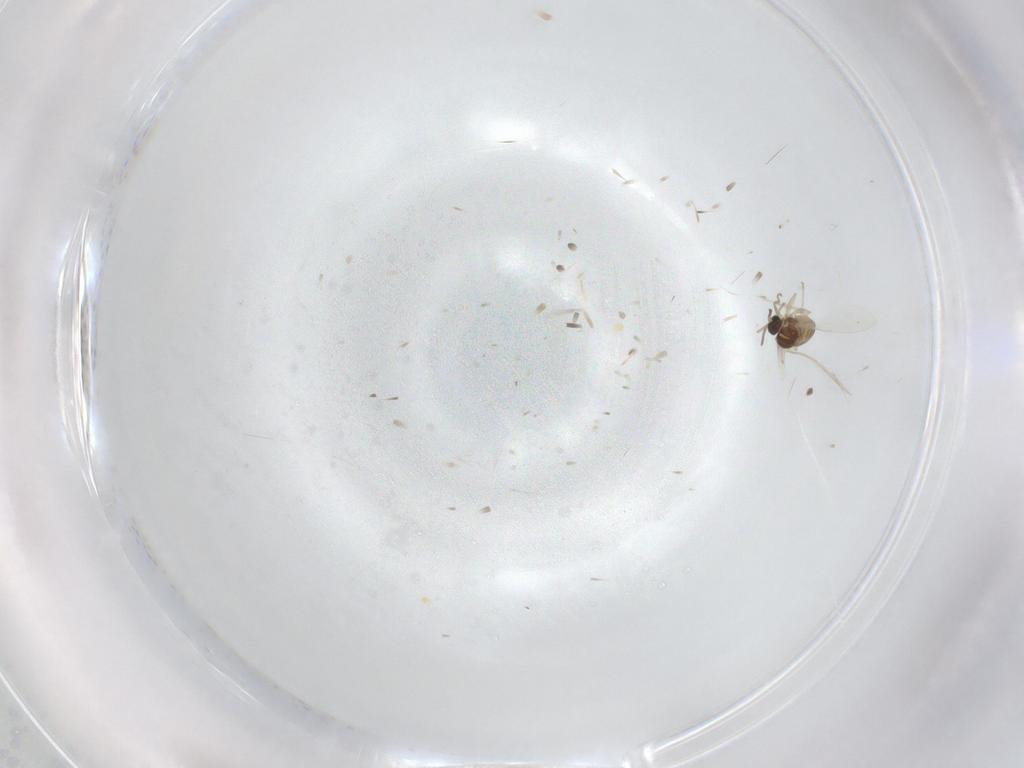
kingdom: Animalia
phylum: Arthropoda
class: Insecta
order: Diptera
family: Cecidomyiidae
